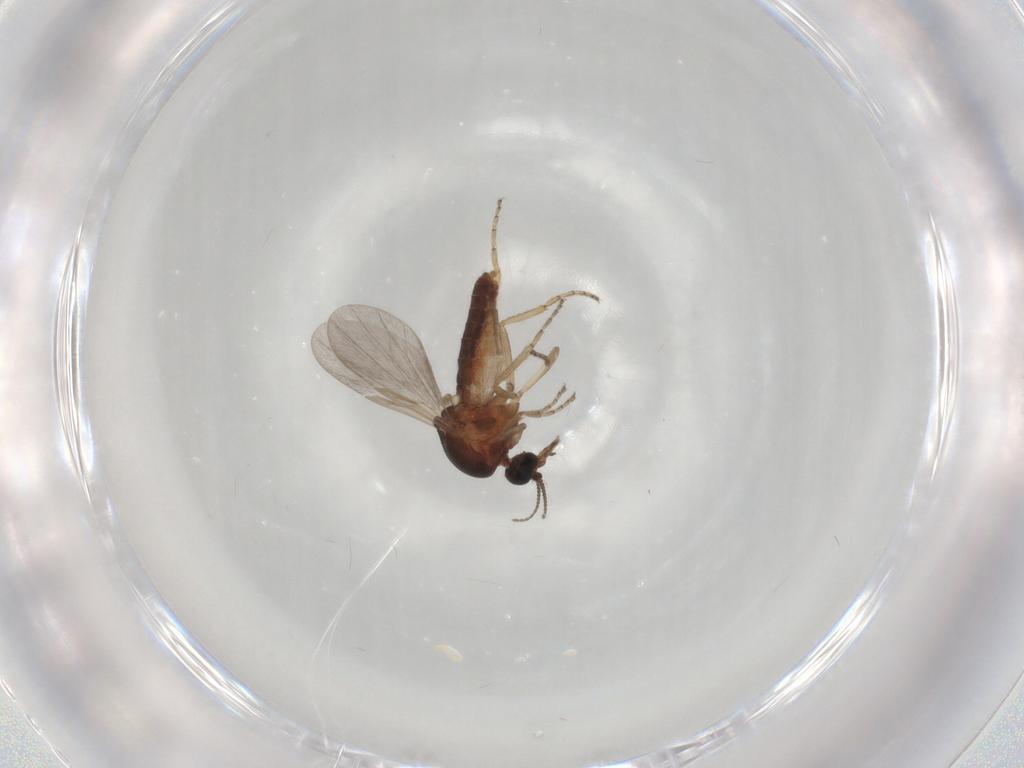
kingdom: Animalia
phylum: Arthropoda
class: Insecta
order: Diptera
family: Ceratopogonidae
